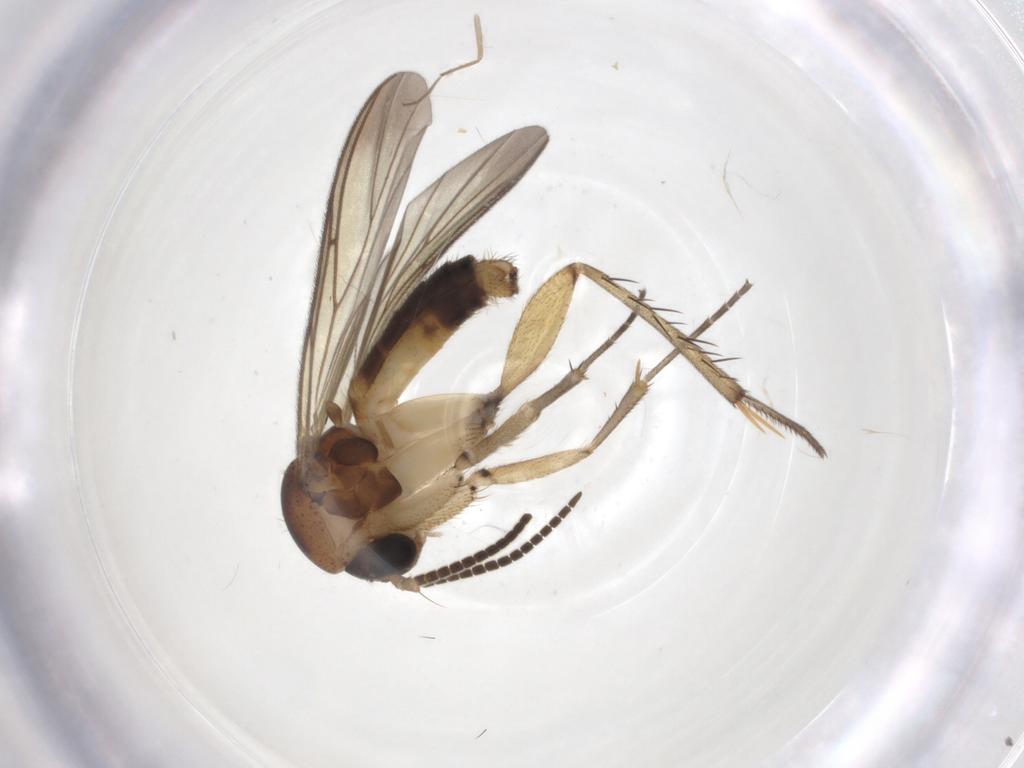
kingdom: Animalia
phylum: Arthropoda
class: Insecta
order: Diptera
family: Mycetophilidae
